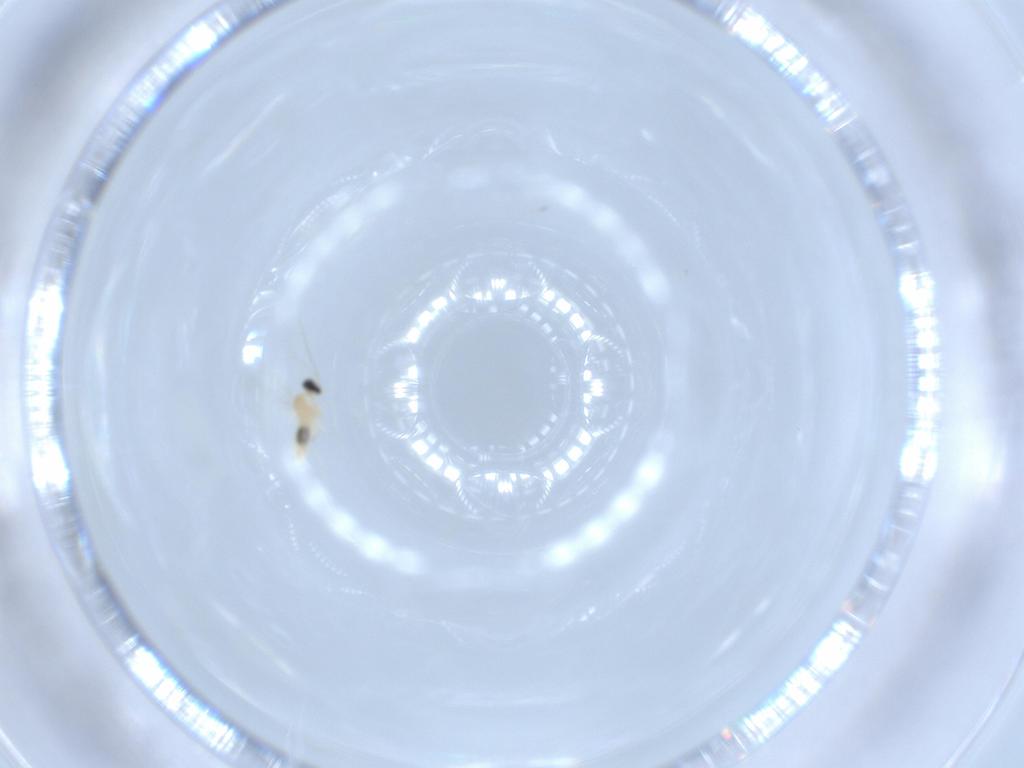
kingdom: Animalia
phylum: Arthropoda
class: Insecta
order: Diptera
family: Cecidomyiidae
